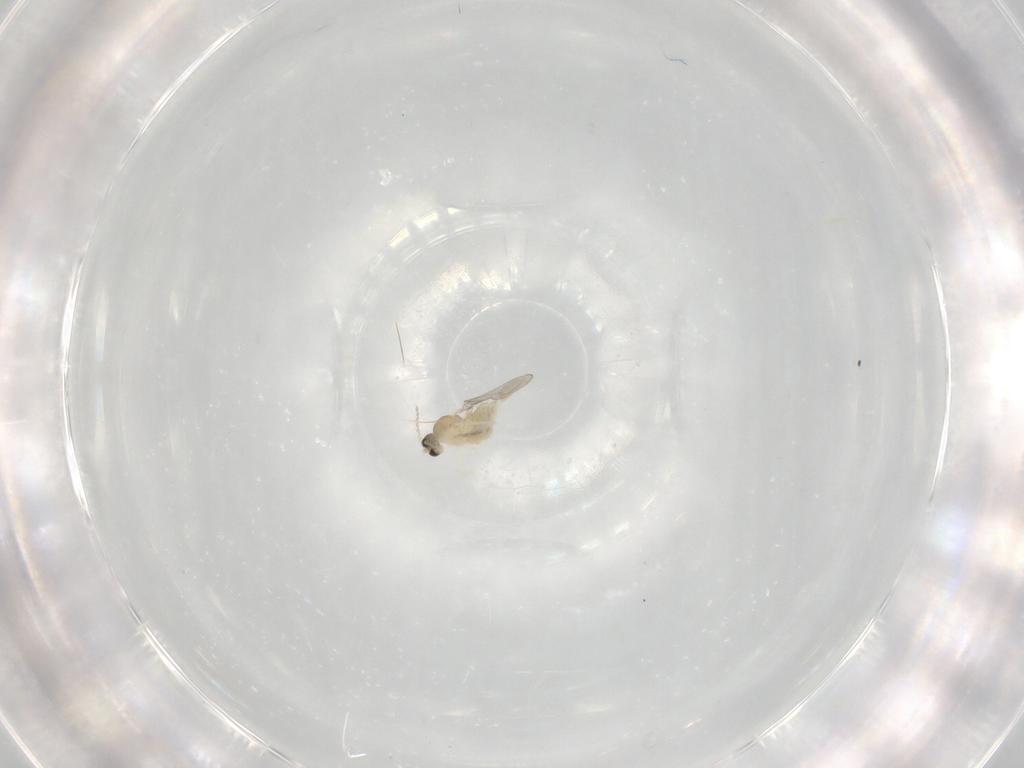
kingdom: Animalia
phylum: Arthropoda
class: Insecta
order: Diptera
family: Cecidomyiidae
